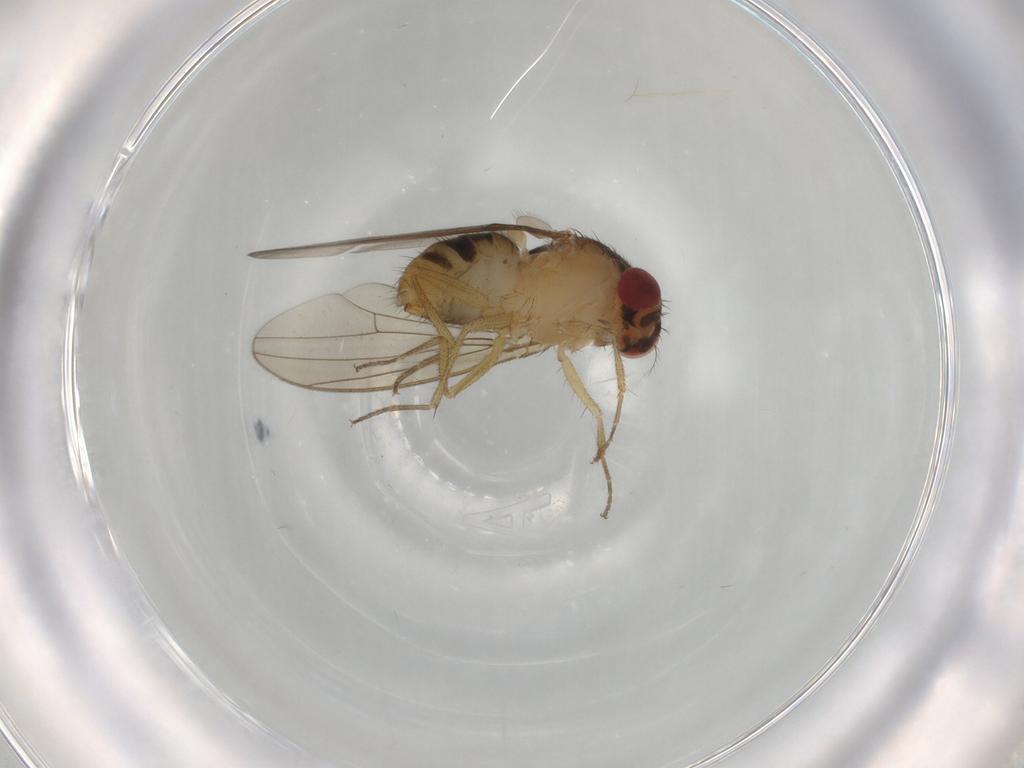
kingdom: Animalia
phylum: Arthropoda
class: Insecta
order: Diptera
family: Drosophilidae
